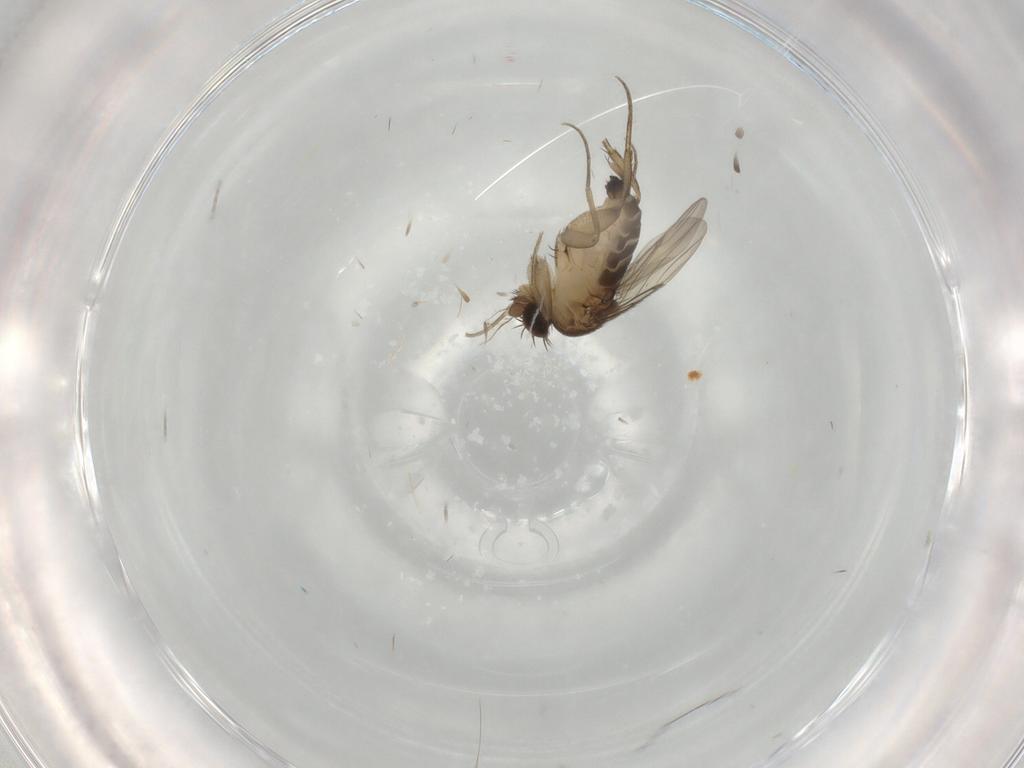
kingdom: Animalia
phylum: Arthropoda
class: Insecta
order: Diptera
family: Phoridae
